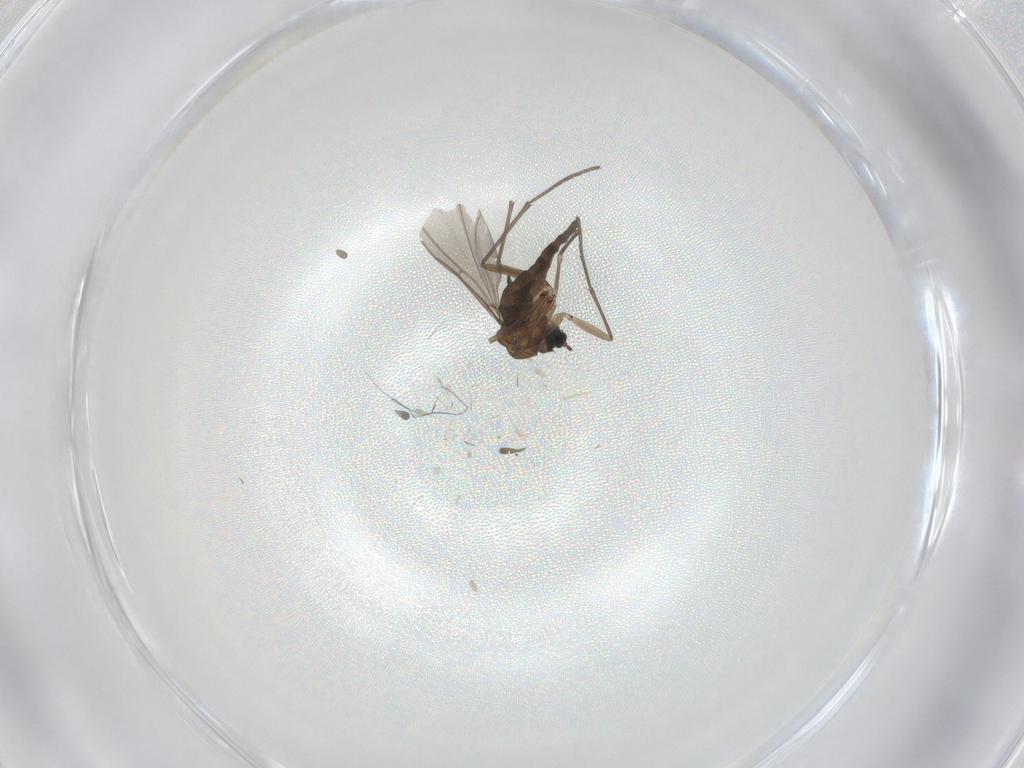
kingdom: Animalia
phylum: Arthropoda
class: Insecta
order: Diptera
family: Sciaridae
